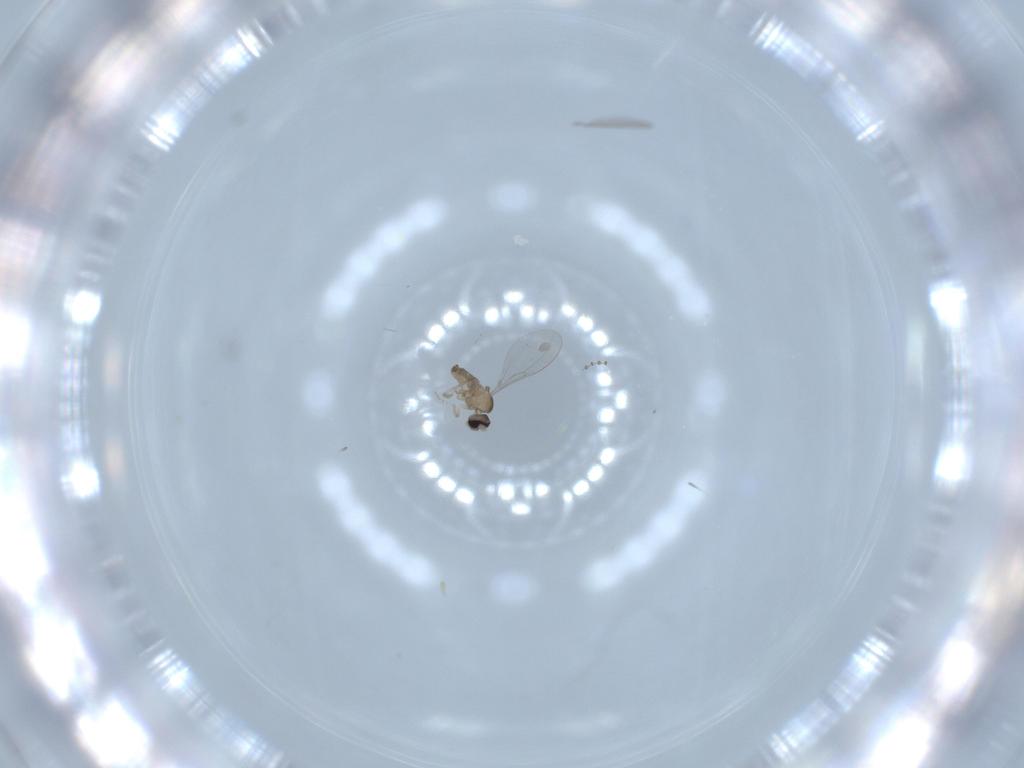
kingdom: Animalia
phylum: Arthropoda
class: Insecta
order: Diptera
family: Cecidomyiidae
